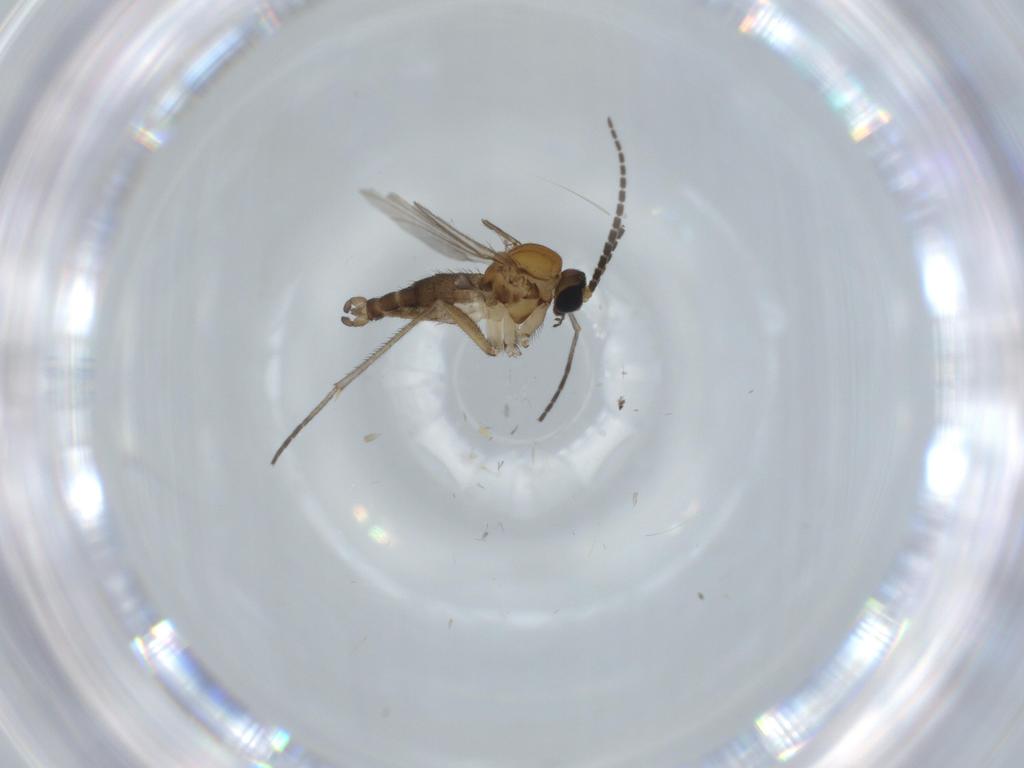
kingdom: Animalia
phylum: Arthropoda
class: Insecta
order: Diptera
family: Sciaridae
